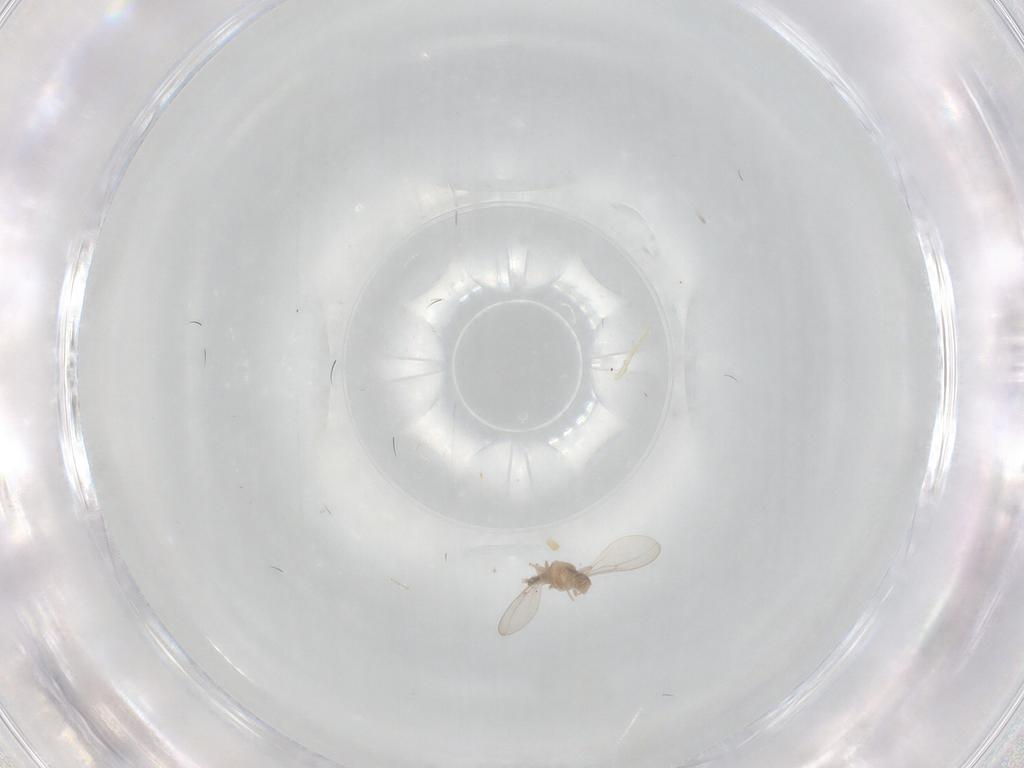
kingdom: Animalia
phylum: Arthropoda
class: Insecta
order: Diptera
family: Cecidomyiidae
